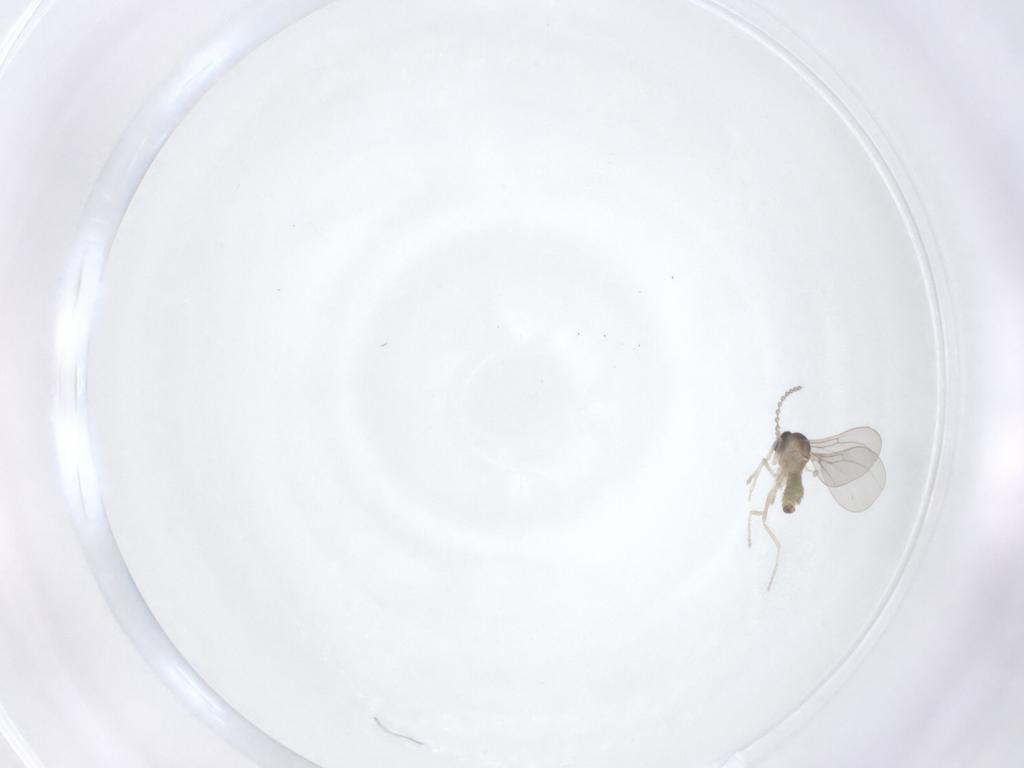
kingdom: Animalia
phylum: Arthropoda
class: Insecta
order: Diptera
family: Cecidomyiidae
